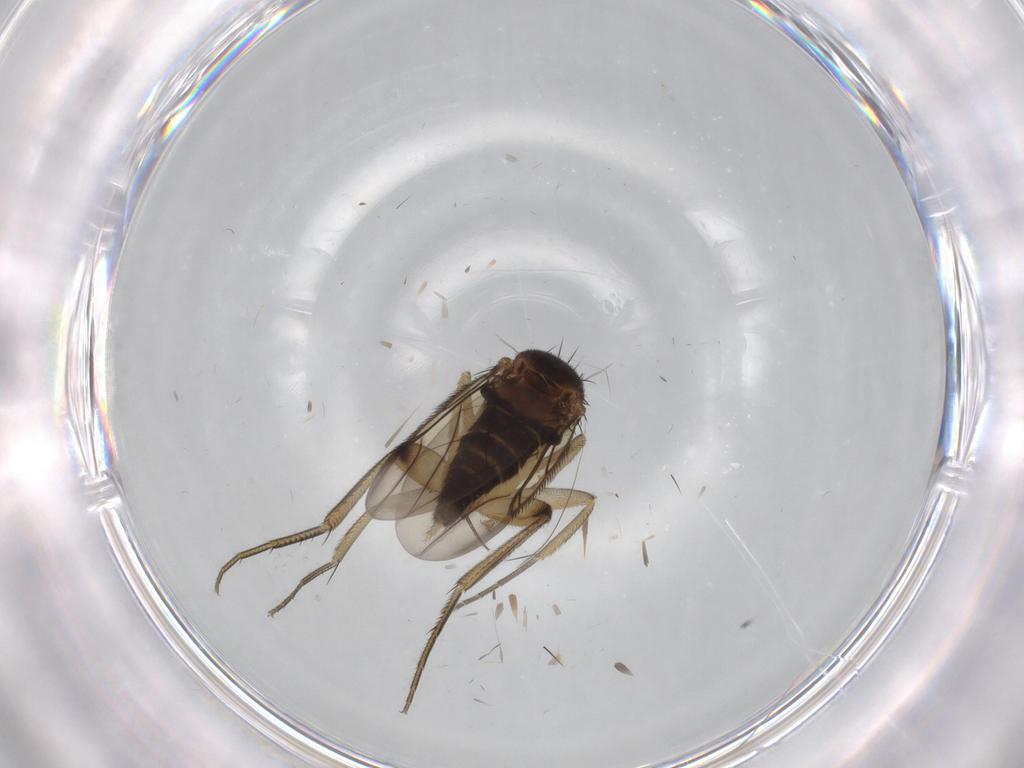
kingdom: Animalia
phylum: Arthropoda
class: Insecta
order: Diptera
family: Phoridae
